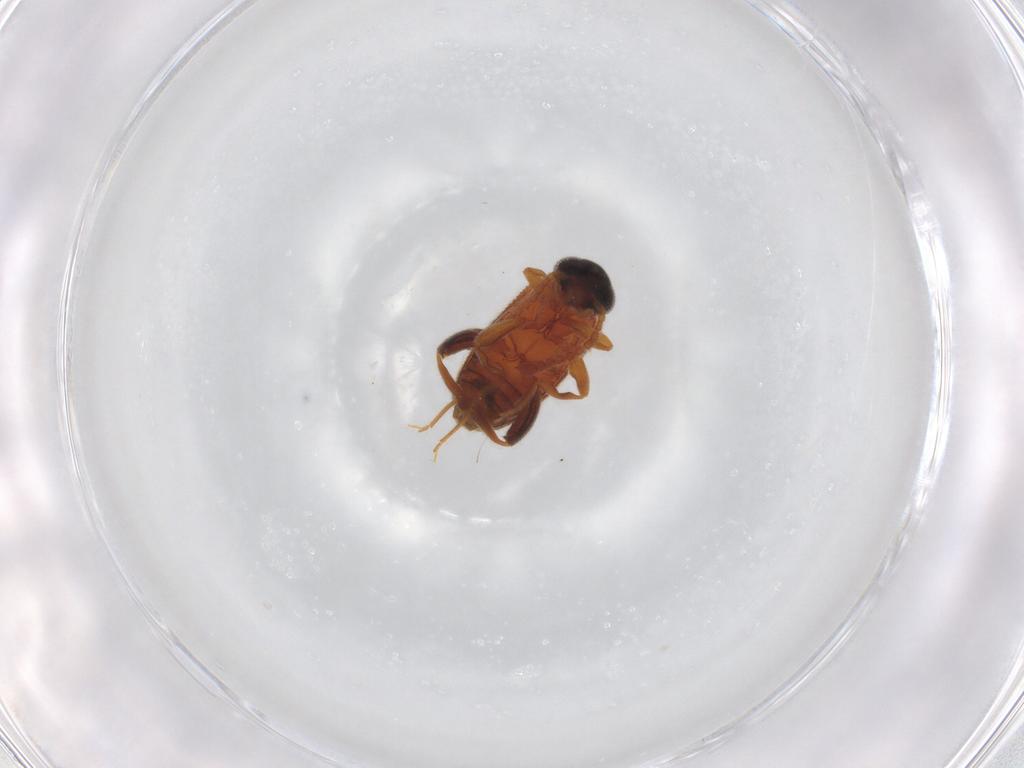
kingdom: Animalia
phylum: Arthropoda
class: Insecta
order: Coleoptera
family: Aderidae
